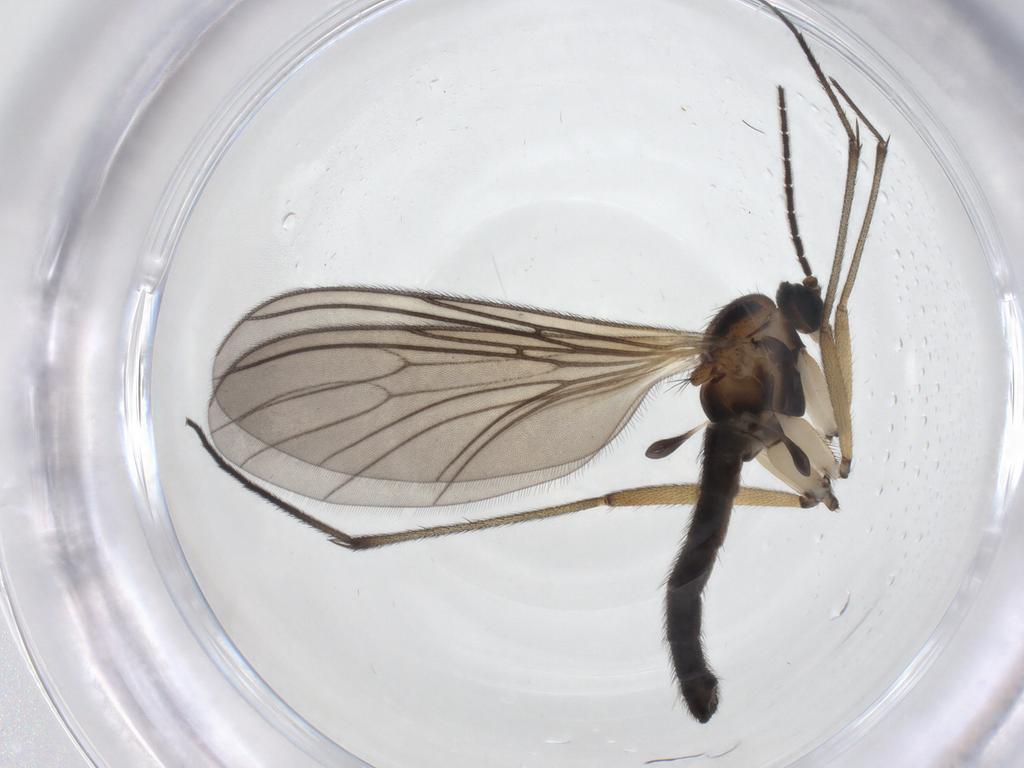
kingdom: Animalia
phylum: Arthropoda
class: Insecta
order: Diptera
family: Sciaridae
